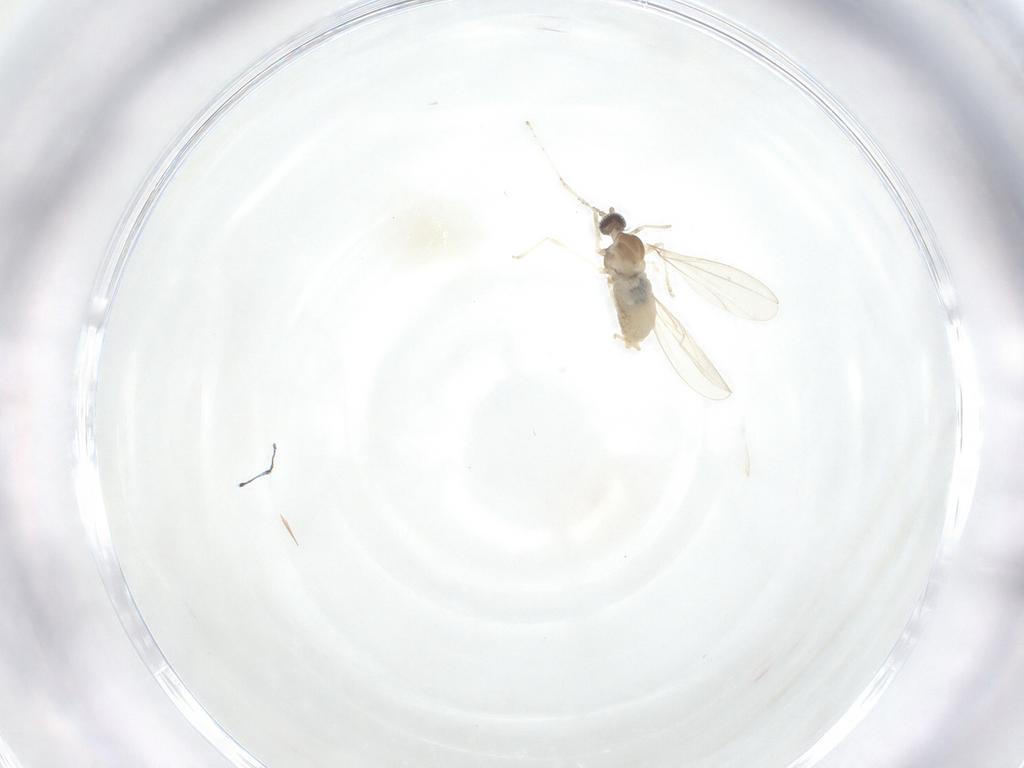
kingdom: Animalia
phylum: Arthropoda
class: Insecta
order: Diptera
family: Cecidomyiidae
